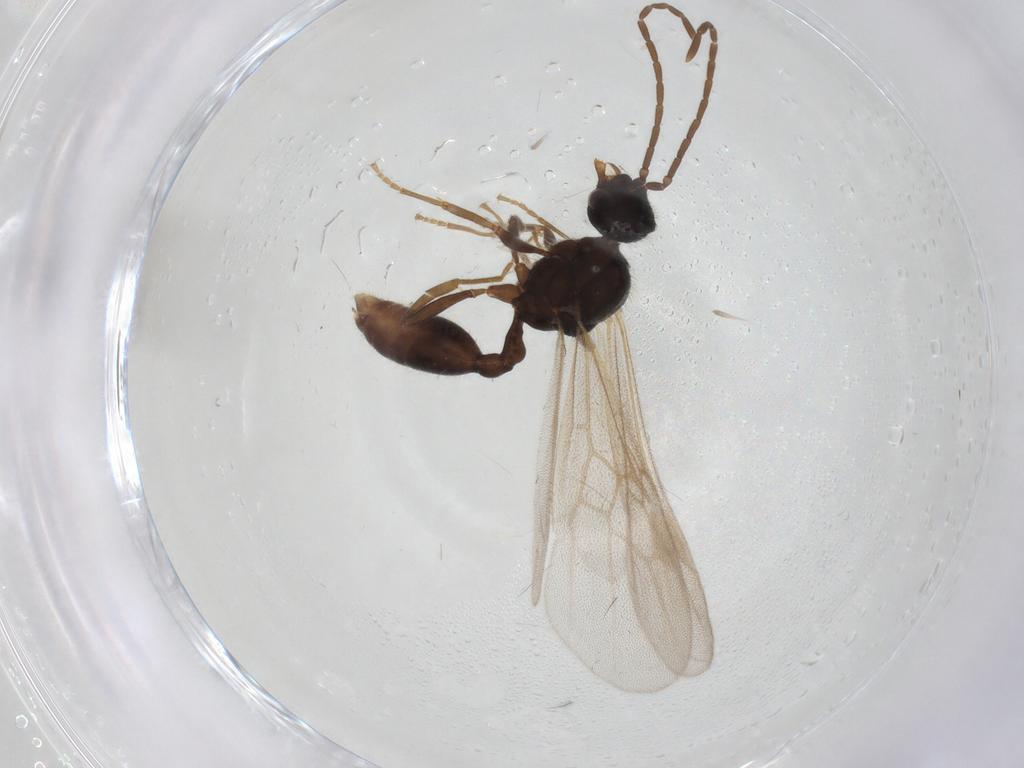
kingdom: Animalia
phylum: Arthropoda
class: Insecta
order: Hymenoptera
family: Formicidae
